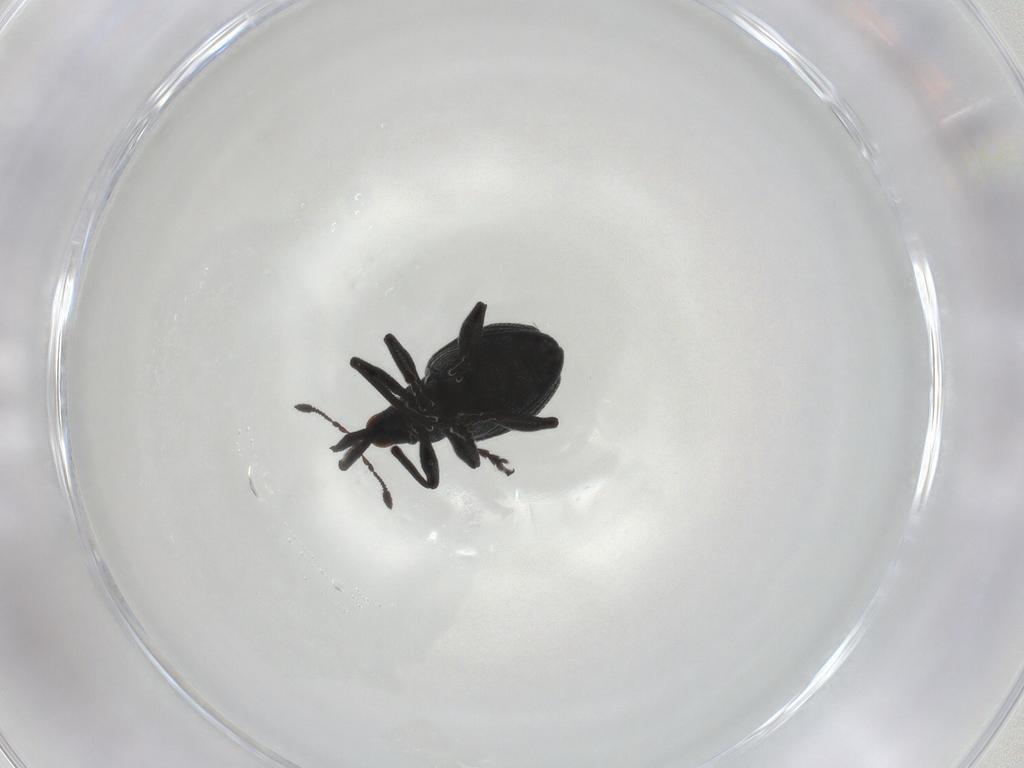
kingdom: Animalia
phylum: Arthropoda
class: Insecta
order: Coleoptera
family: Brentidae
